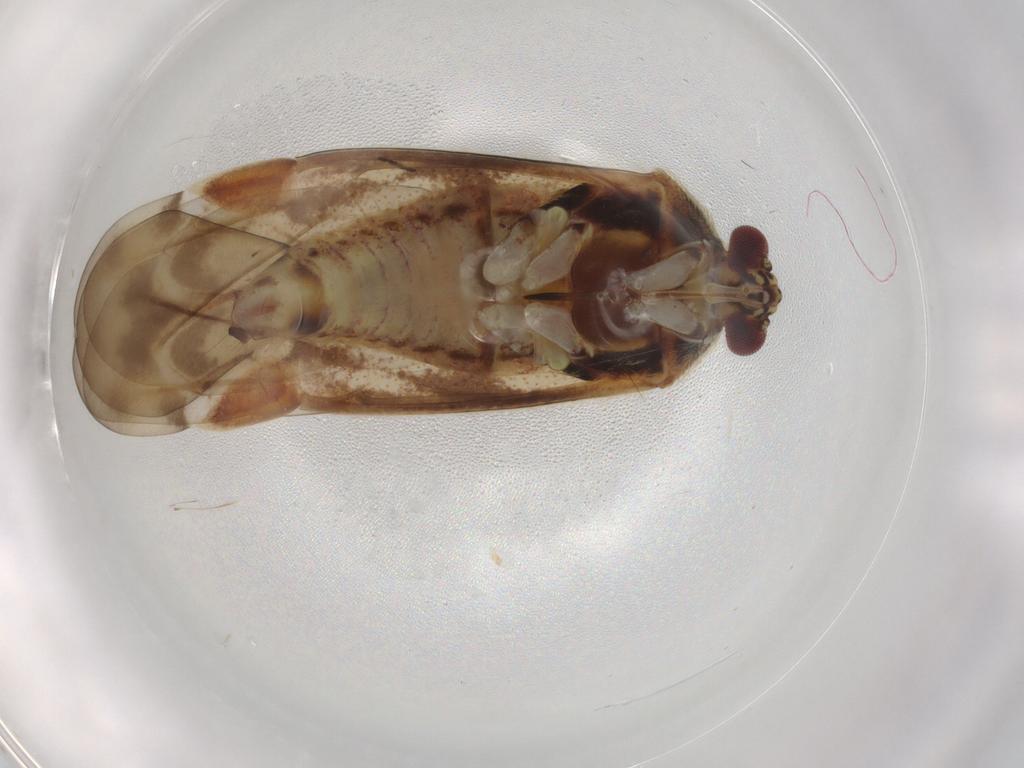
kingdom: Animalia
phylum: Arthropoda
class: Insecta
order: Hemiptera
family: Miridae
